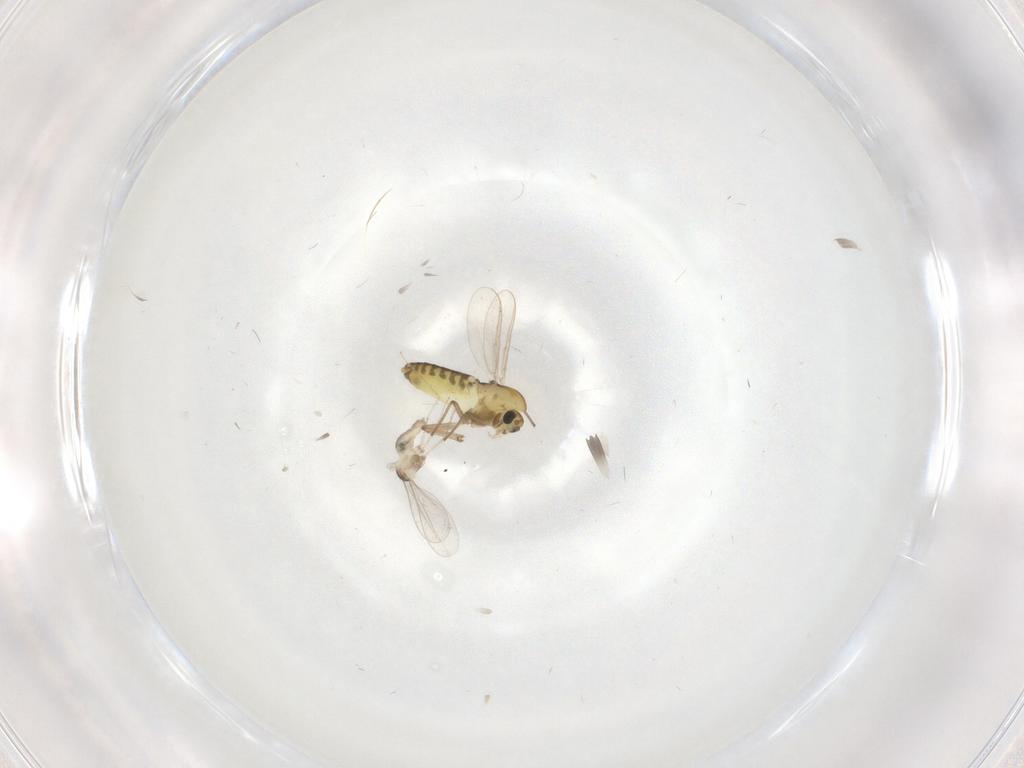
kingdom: Animalia
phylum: Arthropoda
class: Insecta
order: Diptera
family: Chironomidae
